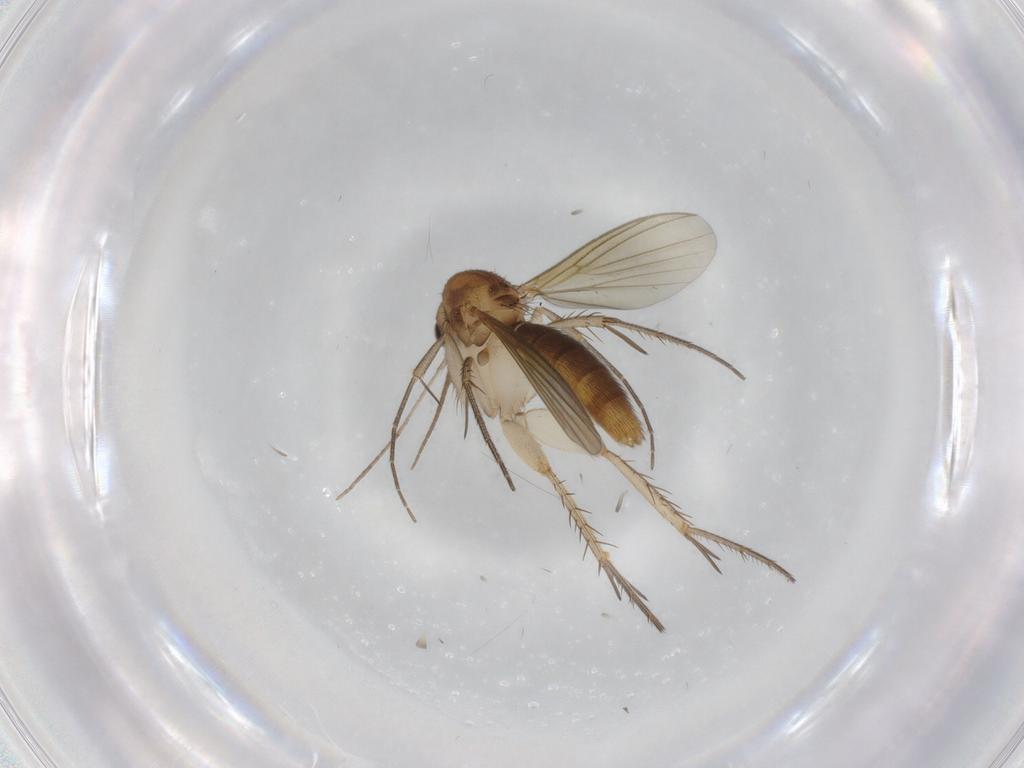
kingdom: Animalia
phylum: Arthropoda
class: Insecta
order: Diptera
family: Mycetophilidae
